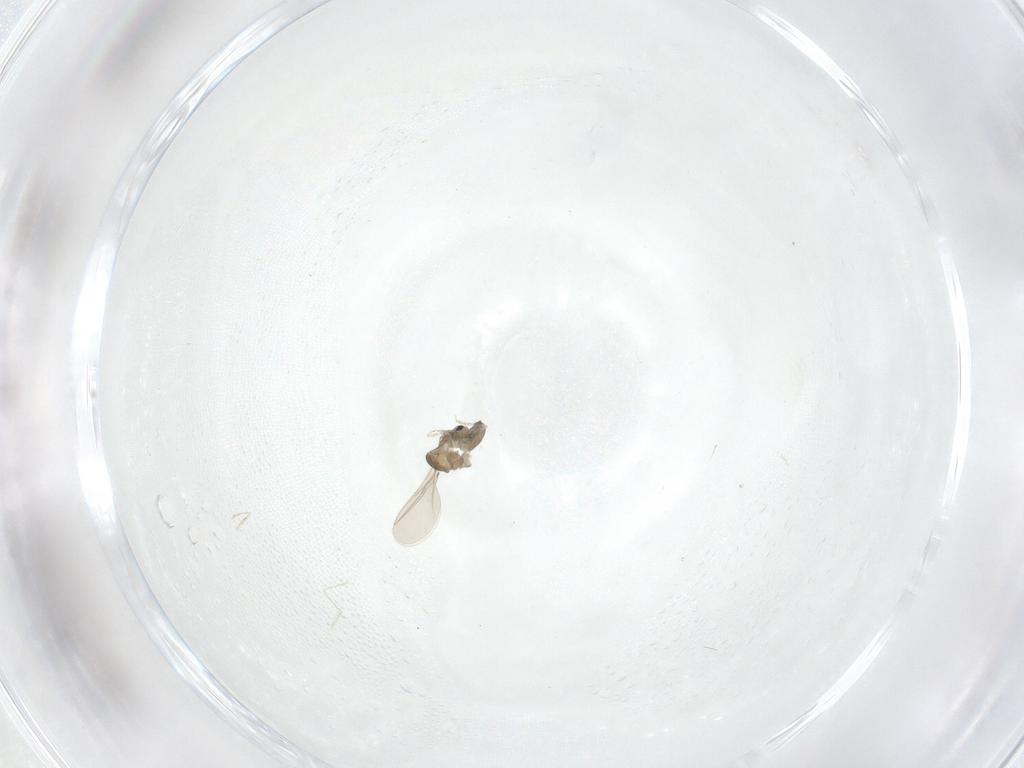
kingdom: Animalia
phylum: Arthropoda
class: Insecta
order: Diptera
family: Cecidomyiidae
